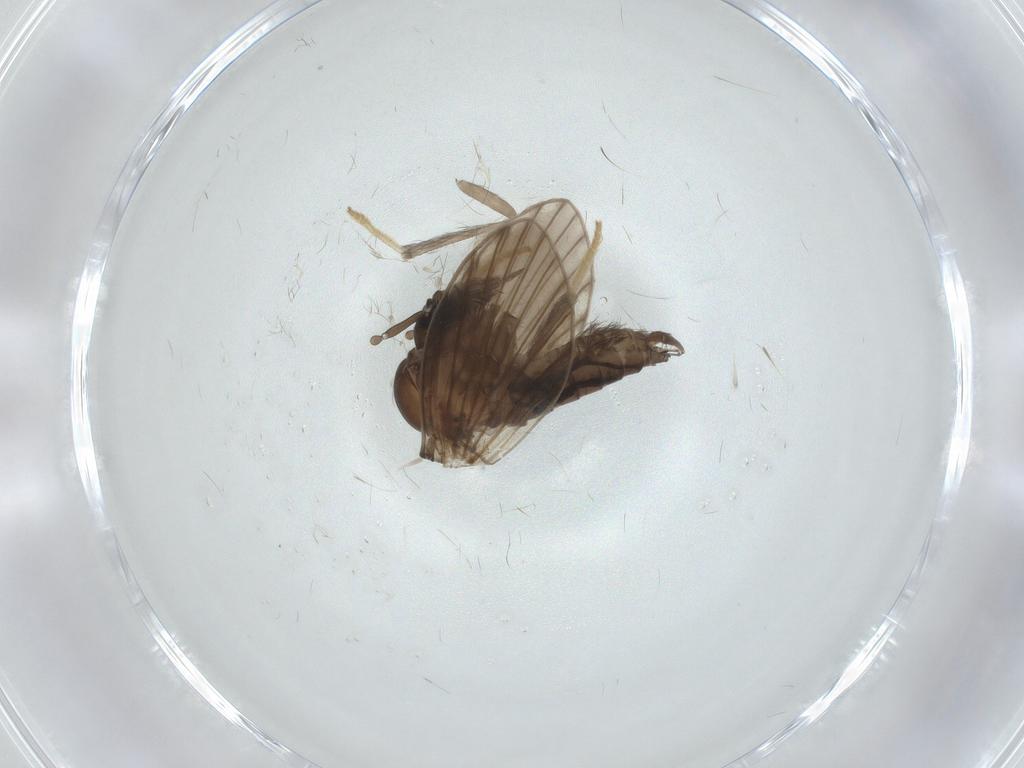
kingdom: Animalia
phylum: Arthropoda
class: Insecta
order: Diptera
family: Psychodidae
